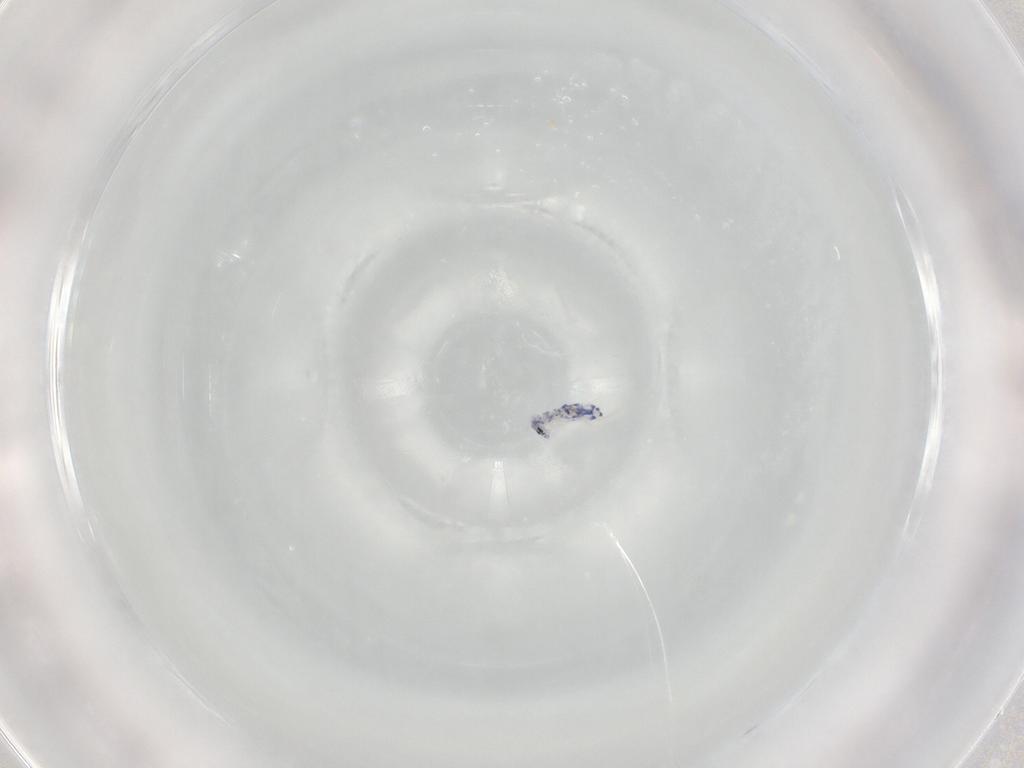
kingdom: Animalia
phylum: Arthropoda
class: Collembola
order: Entomobryomorpha
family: Entomobryidae
